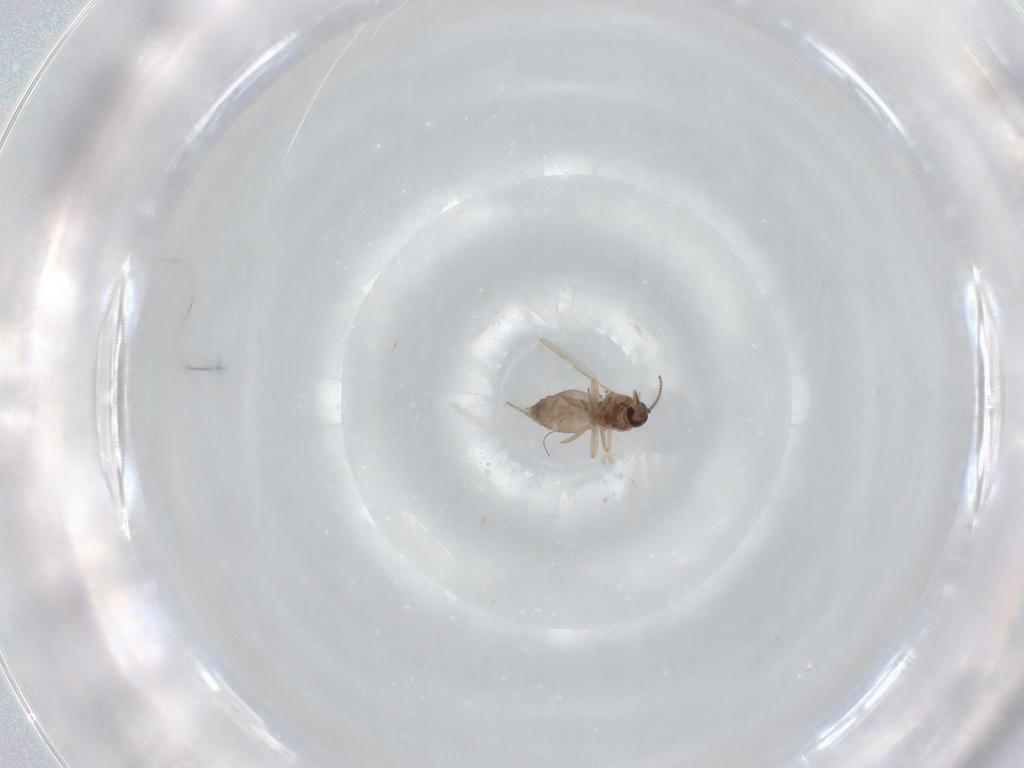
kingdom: Animalia
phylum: Arthropoda
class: Insecta
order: Diptera
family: Ceratopogonidae
